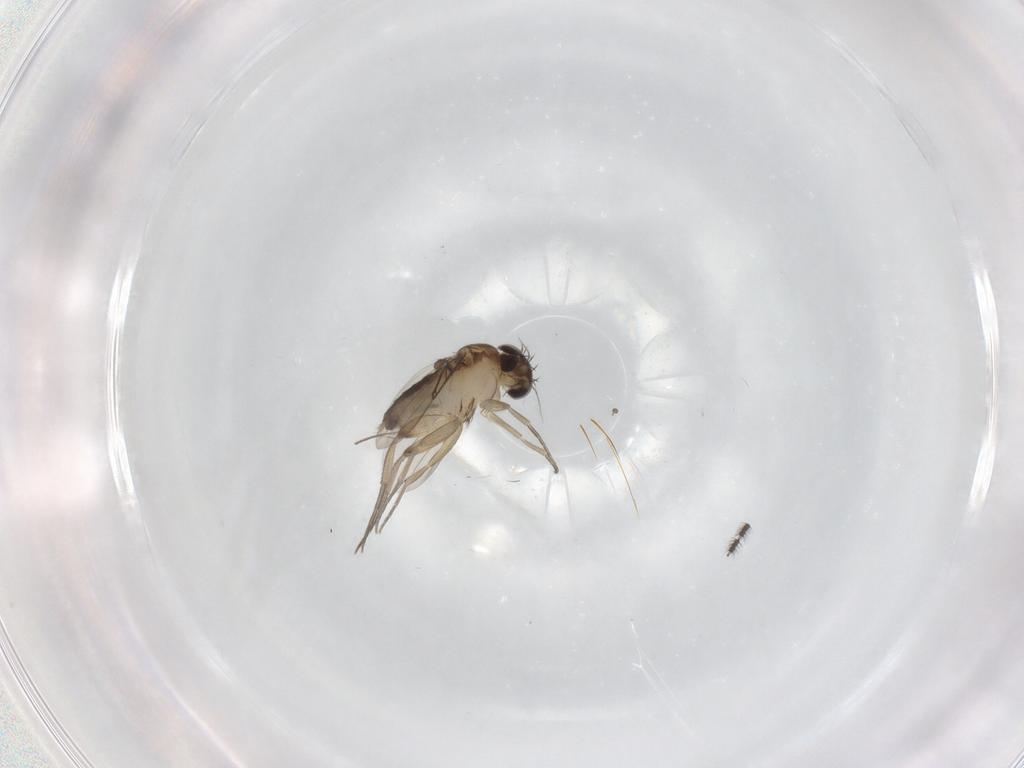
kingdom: Animalia
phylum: Arthropoda
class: Insecta
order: Diptera
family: Phoridae
